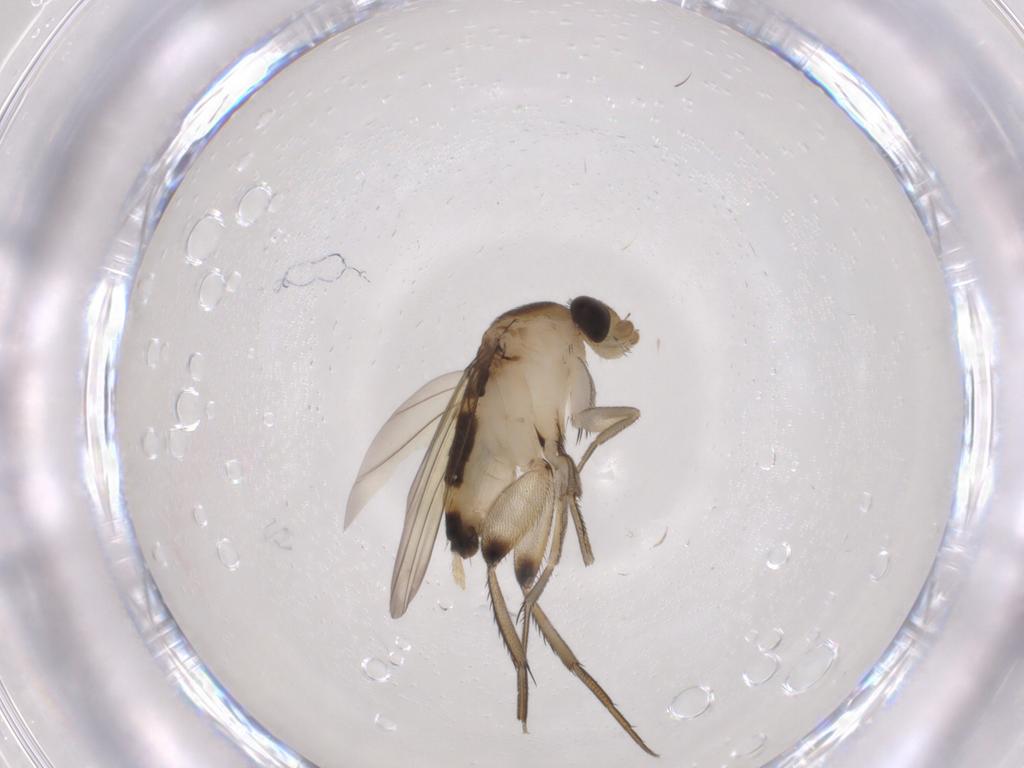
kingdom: Animalia
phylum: Arthropoda
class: Insecta
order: Diptera
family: Phoridae
